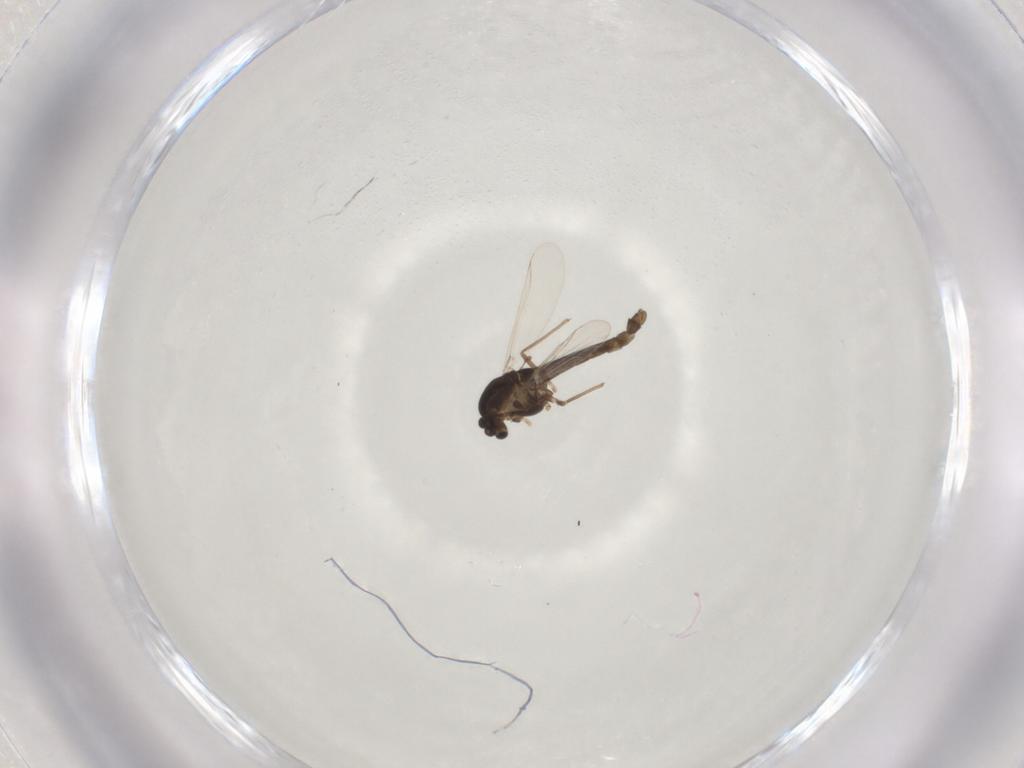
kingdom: Animalia
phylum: Arthropoda
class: Insecta
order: Diptera
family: Chironomidae
